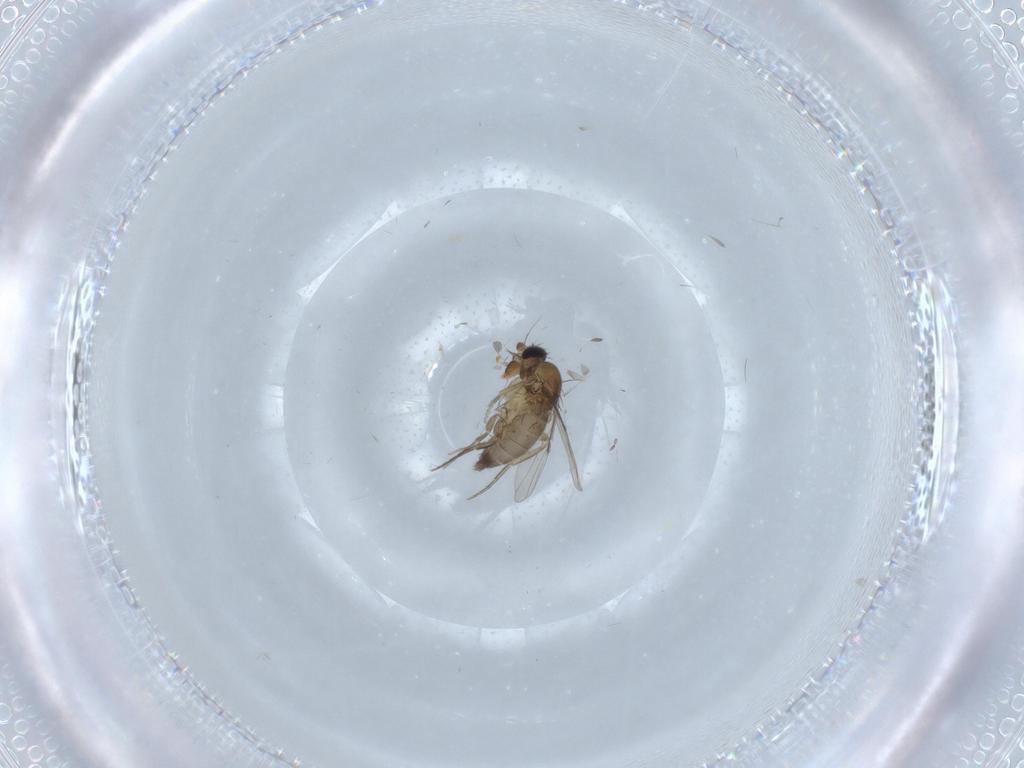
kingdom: Animalia
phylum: Arthropoda
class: Insecta
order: Diptera
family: Phoridae
